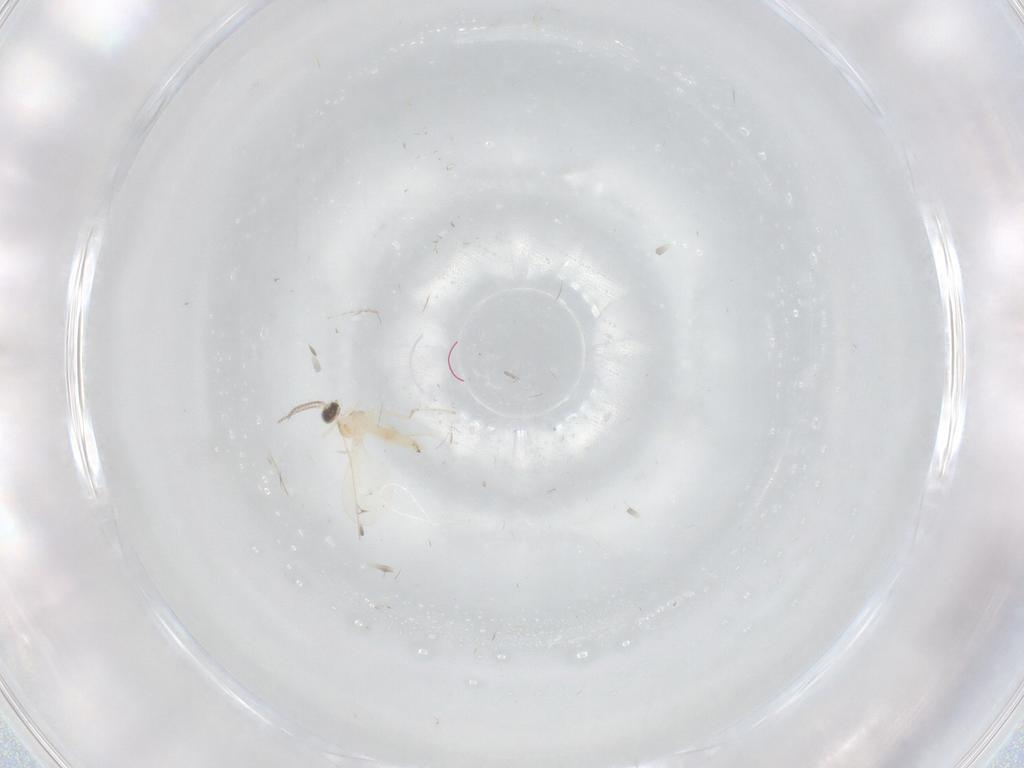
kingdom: Animalia
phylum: Arthropoda
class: Insecta
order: Diptera
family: Cecidomyiidae
